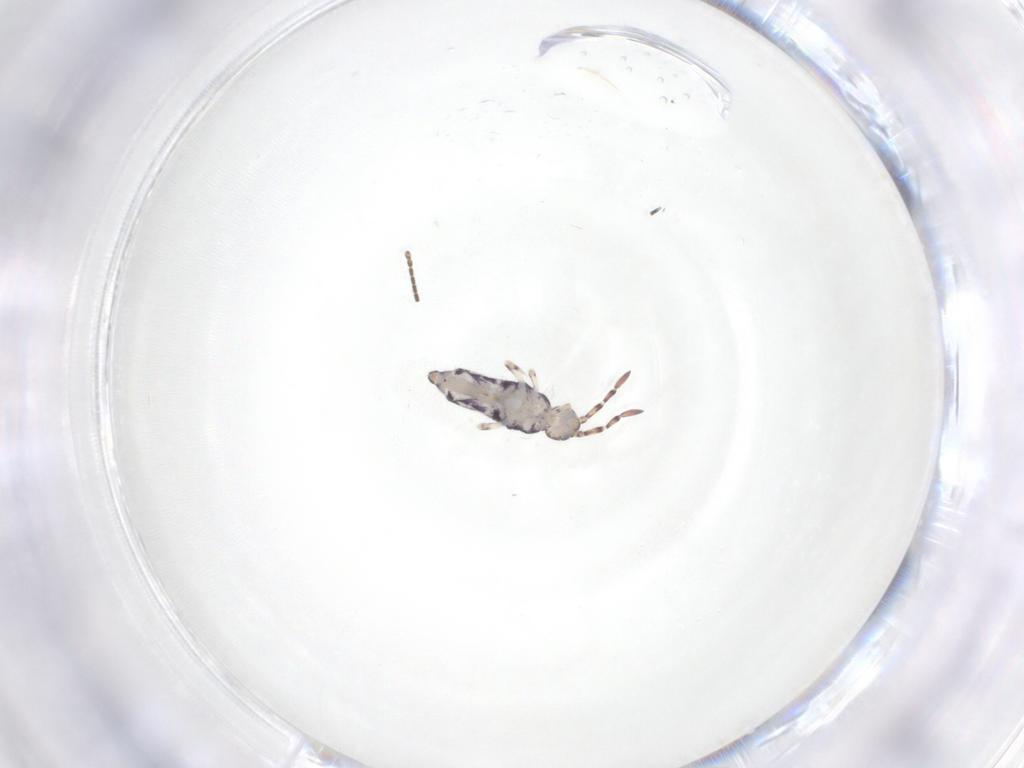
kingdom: Animalia
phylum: Arthropoda
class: Collembola
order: Entomobryomorpha
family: Entomobryidae
